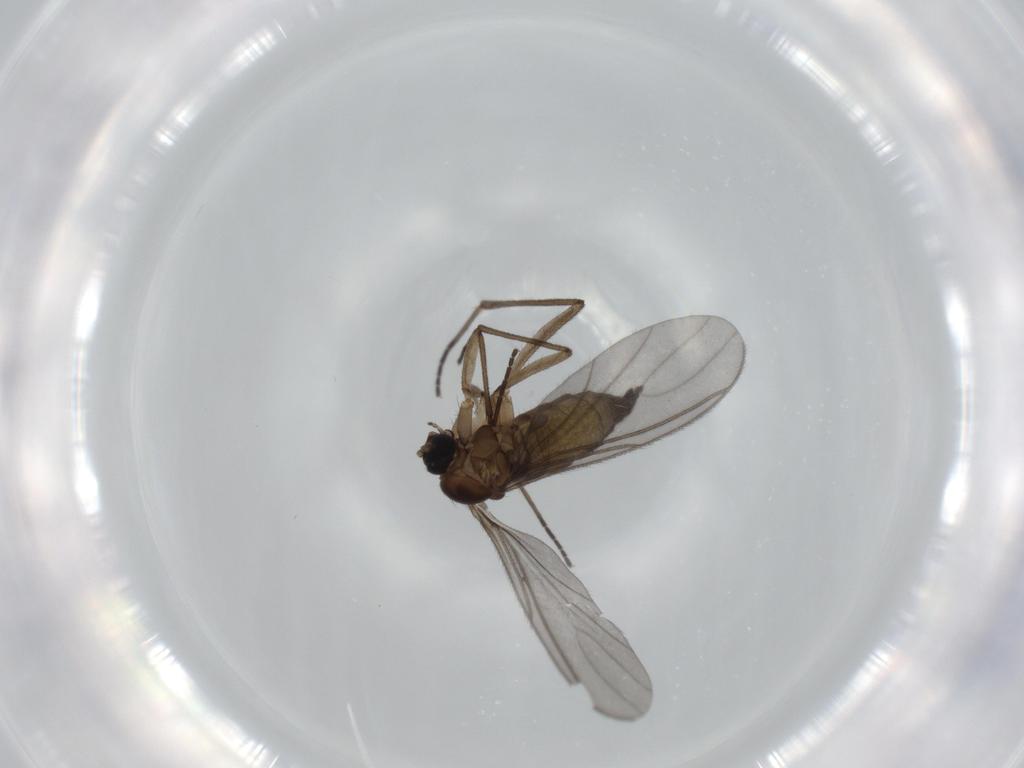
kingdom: Animalia
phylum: Arthropoda
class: Insecta
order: Diptera
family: Sciaridae
